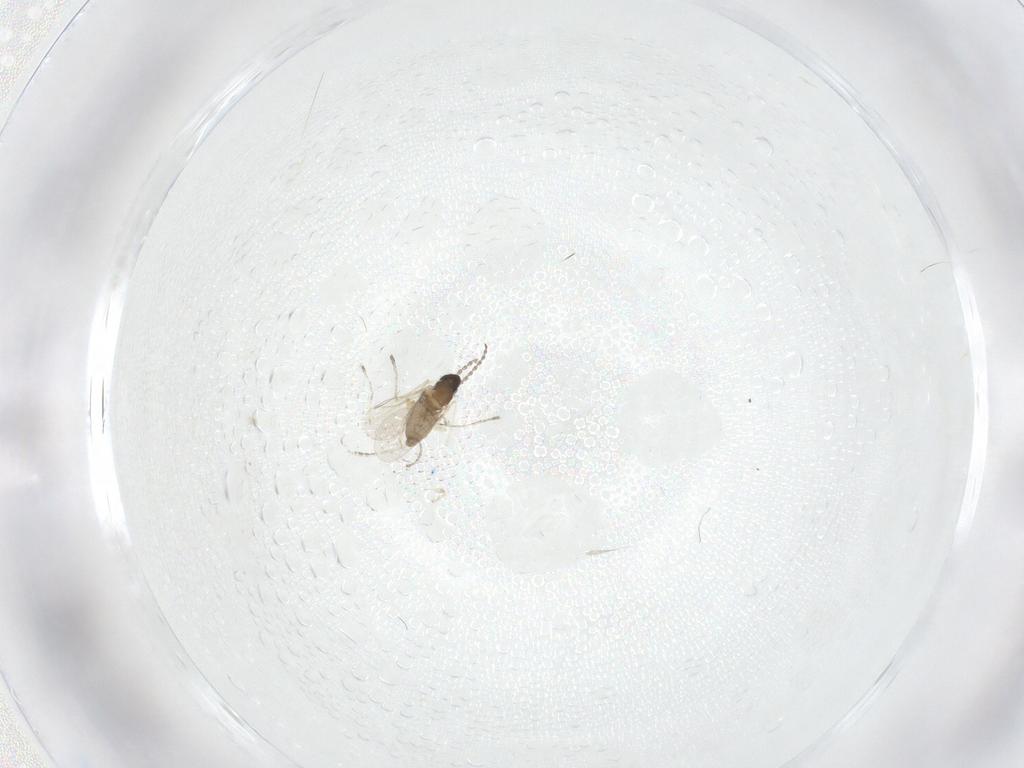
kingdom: Animalia
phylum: Arthropoda
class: Insecta
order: Diptera
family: Cecidomyiidae
